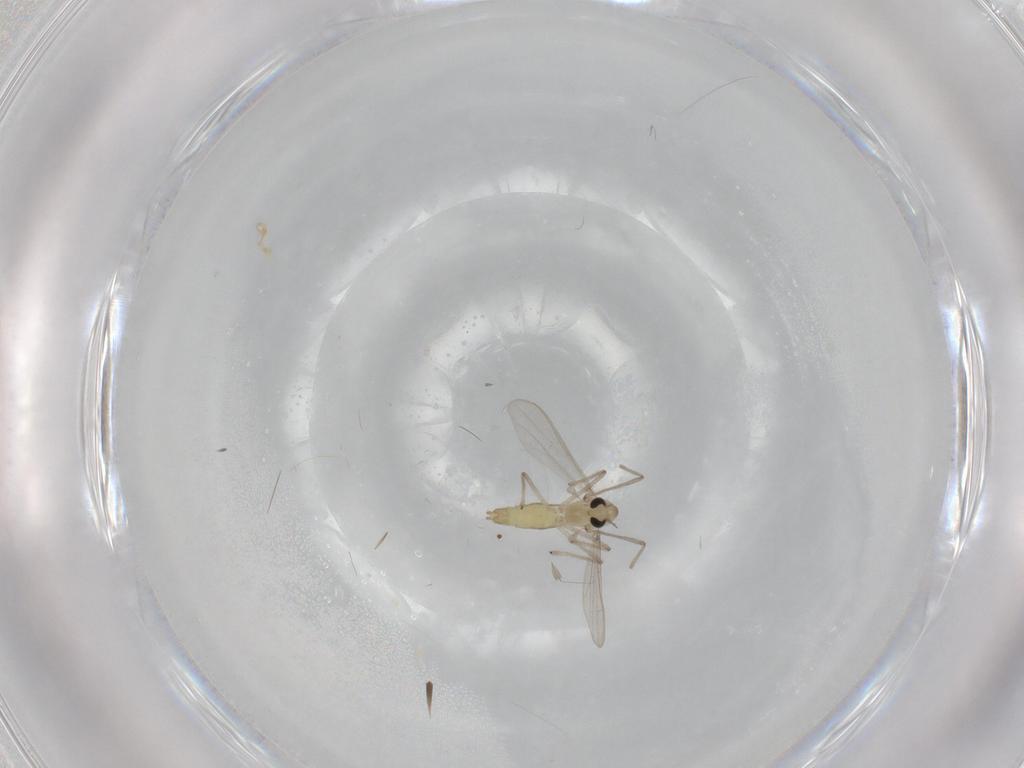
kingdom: Animalia
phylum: Arthropoda
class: Insecta
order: Diptera
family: Chironomidae
